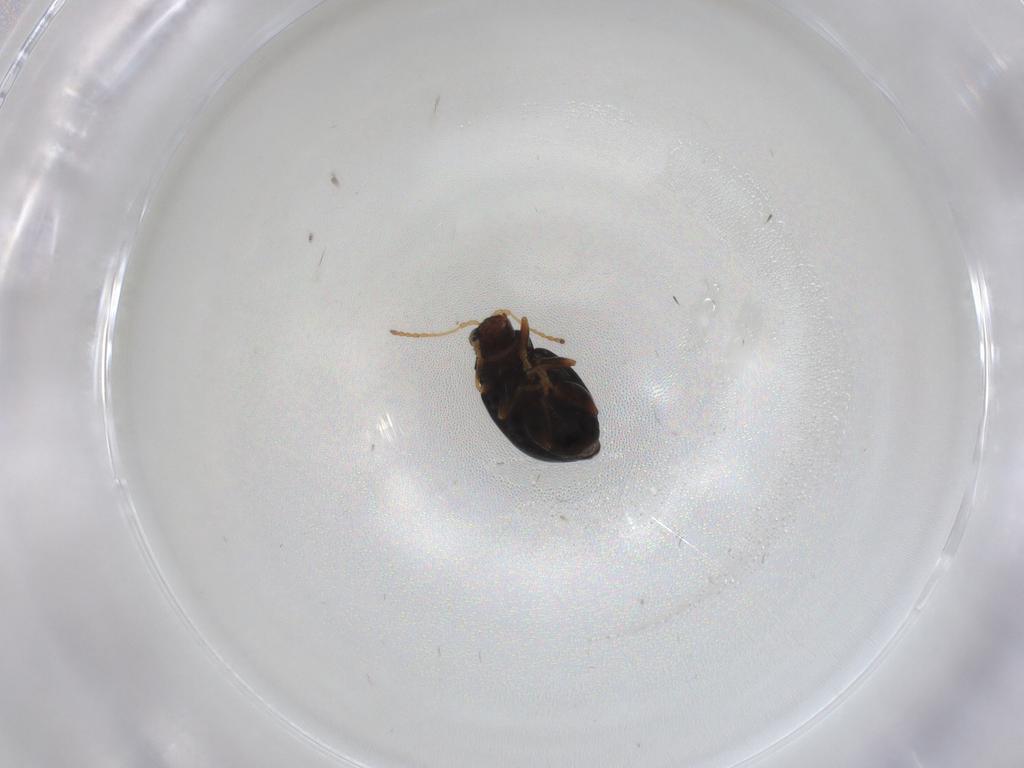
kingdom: Animalia
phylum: Arthropoda
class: Insecta
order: Coleoptera
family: Chrysomelidae
